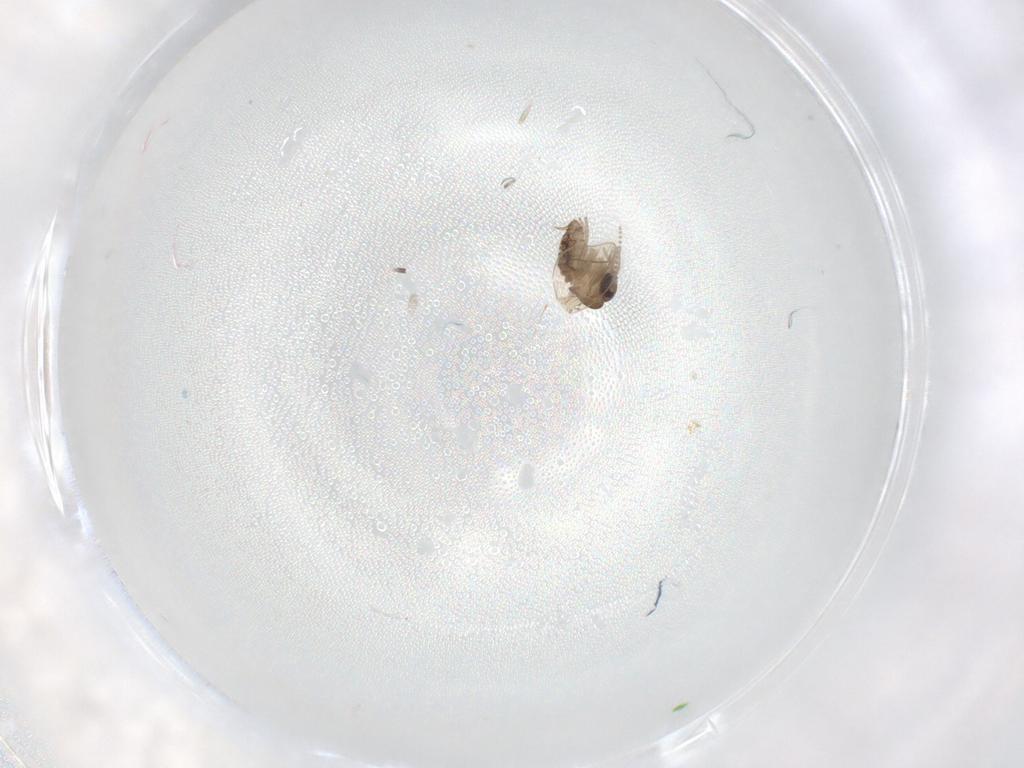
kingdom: Animalia
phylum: Arthropoda
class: Insecta
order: Diptera
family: Psychodidae
